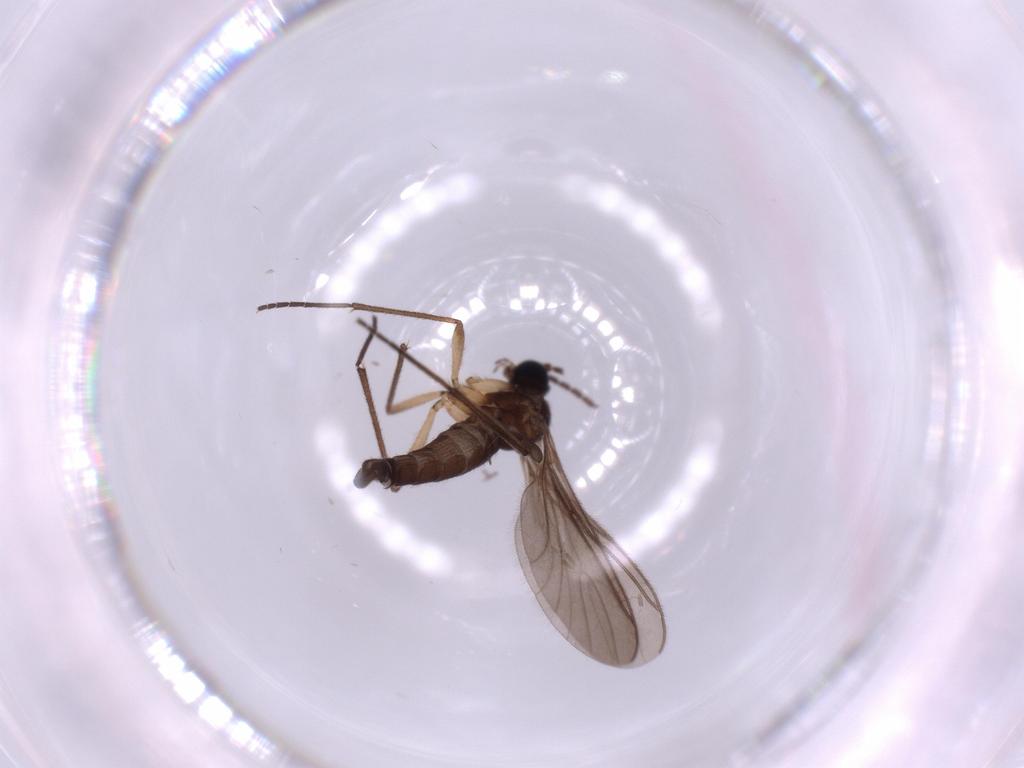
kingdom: Animalia
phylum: Arthropoda
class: Insecta
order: Diptera
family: Sciaridae
